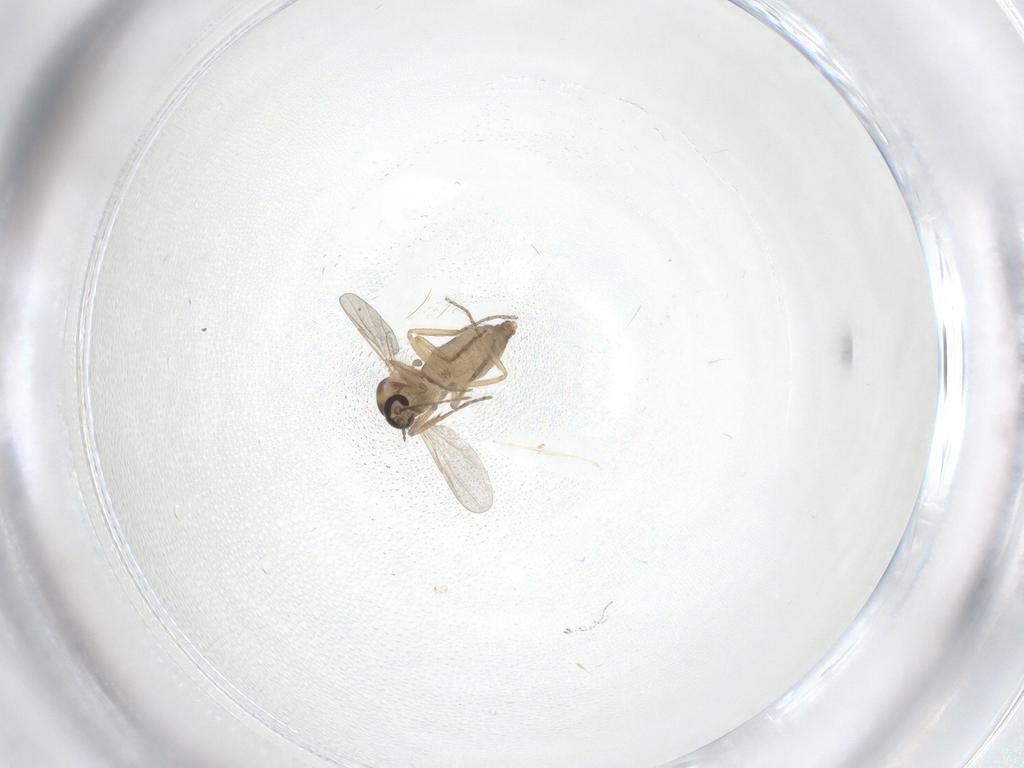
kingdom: Animalia
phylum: Arthropoda
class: Insecta
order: Diptera
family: Ceratopogonidae
